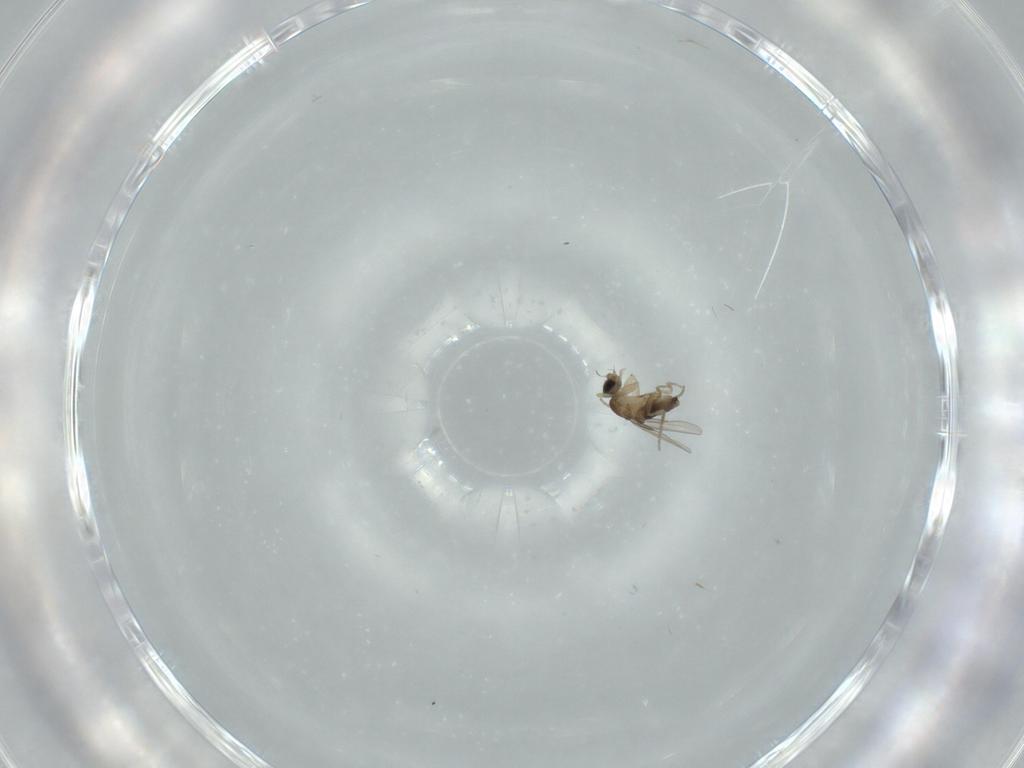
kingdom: Animalia
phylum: Arthropoda
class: Insecta
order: Diptera
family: Phoridae
